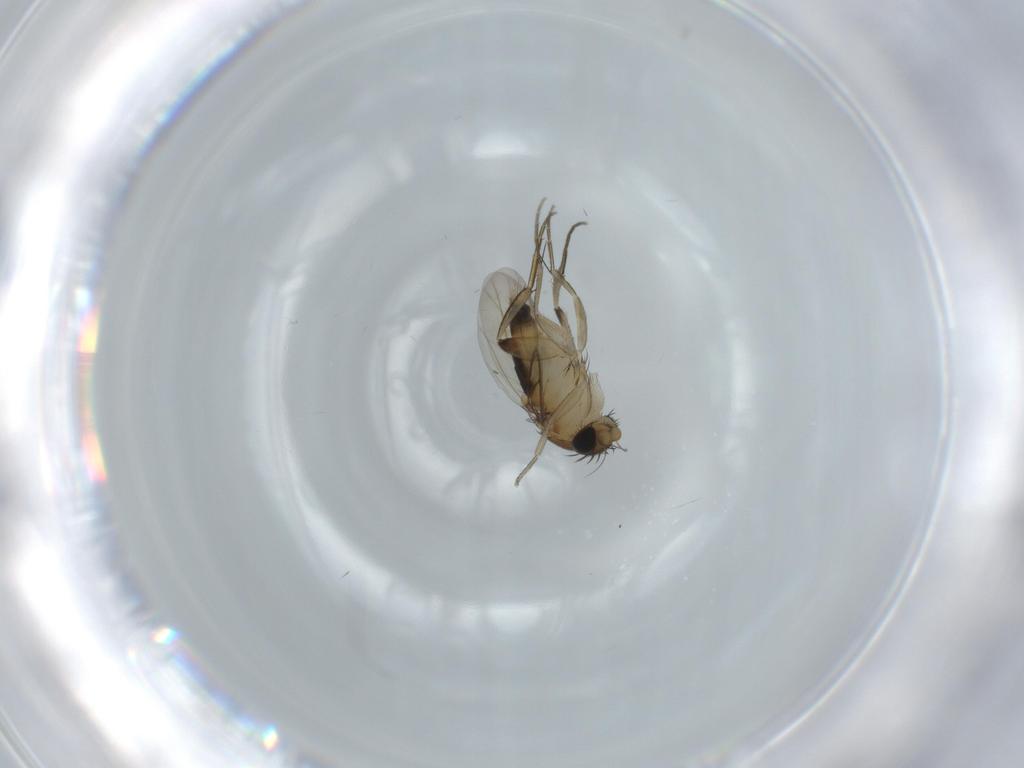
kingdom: Animalia
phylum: Arthropoda
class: Insecta
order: Diptera
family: Phoridae
